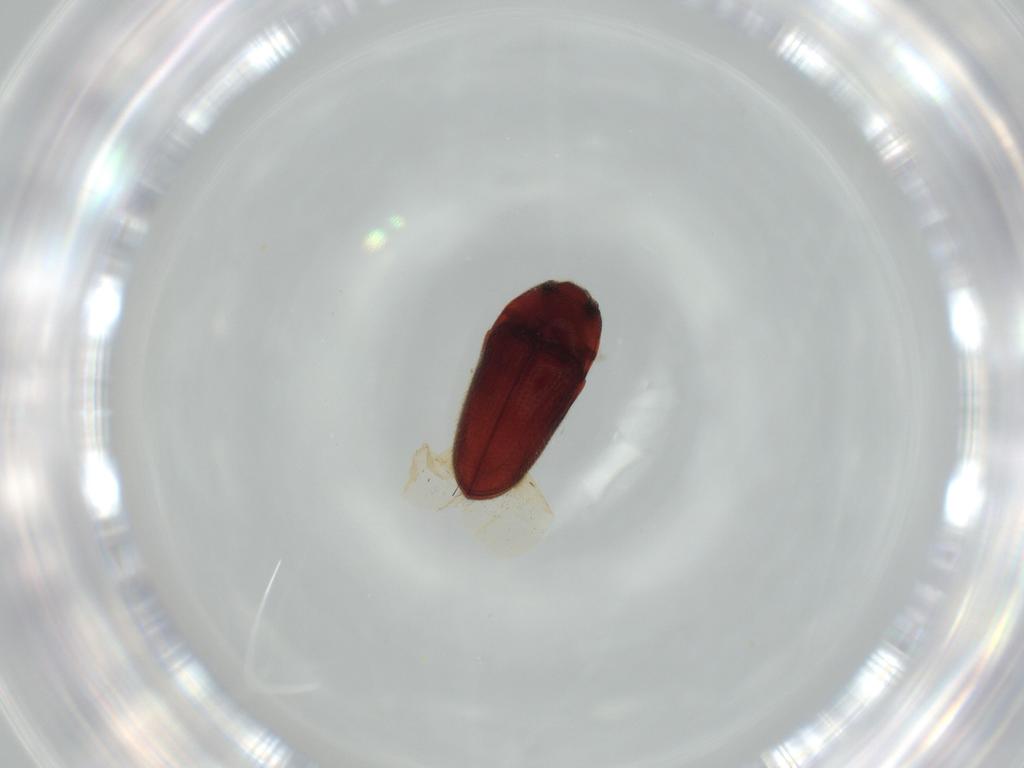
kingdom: Animalia
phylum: Arthropoda
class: Insecta
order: Coleoptera
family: Throscidae
